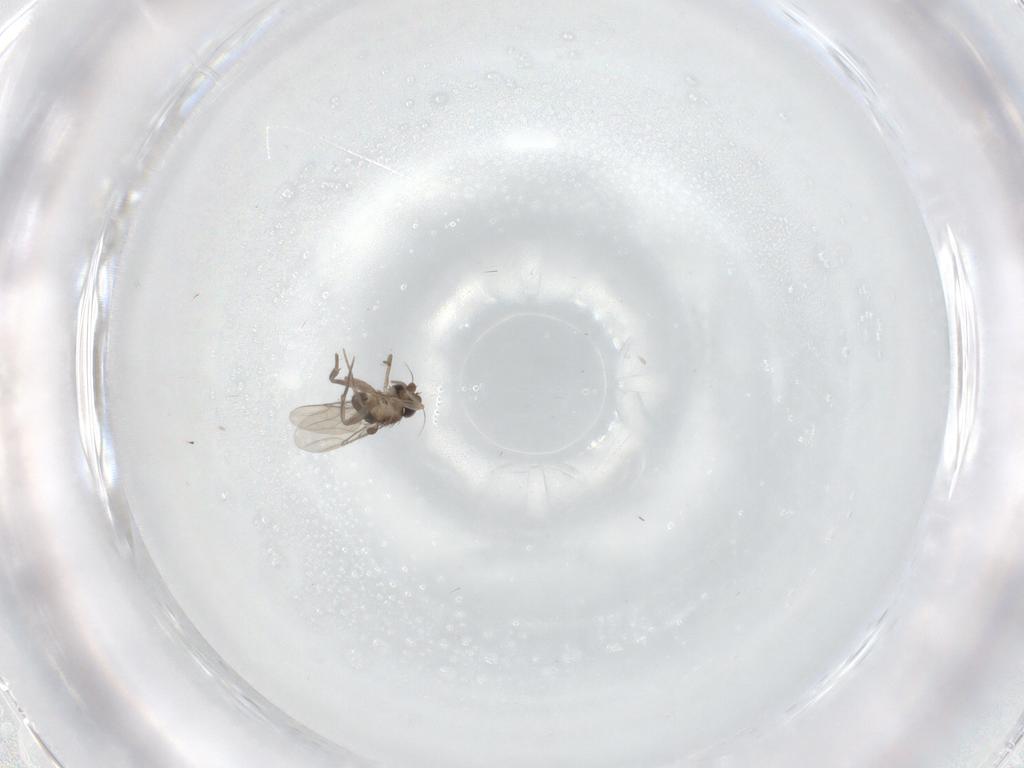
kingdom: Animalia
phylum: Arthropoda
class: Insecta
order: Diptera
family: Phoridae
